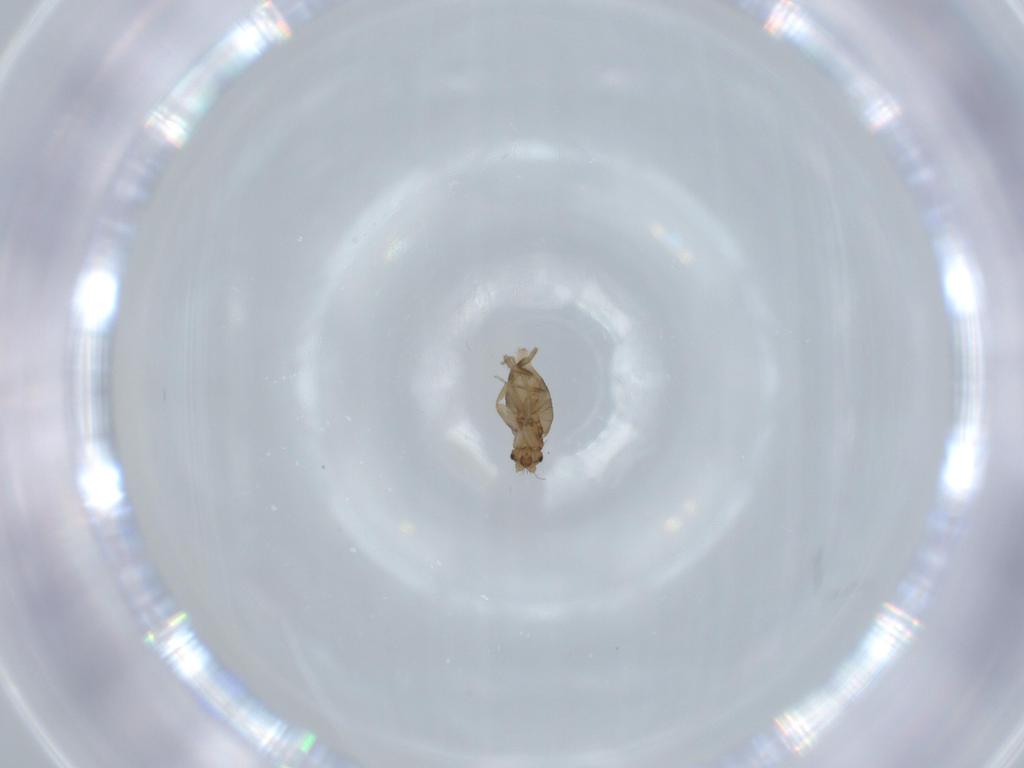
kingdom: Animalia
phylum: Arthropoda
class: Insecta
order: Diptera
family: Phoridae
